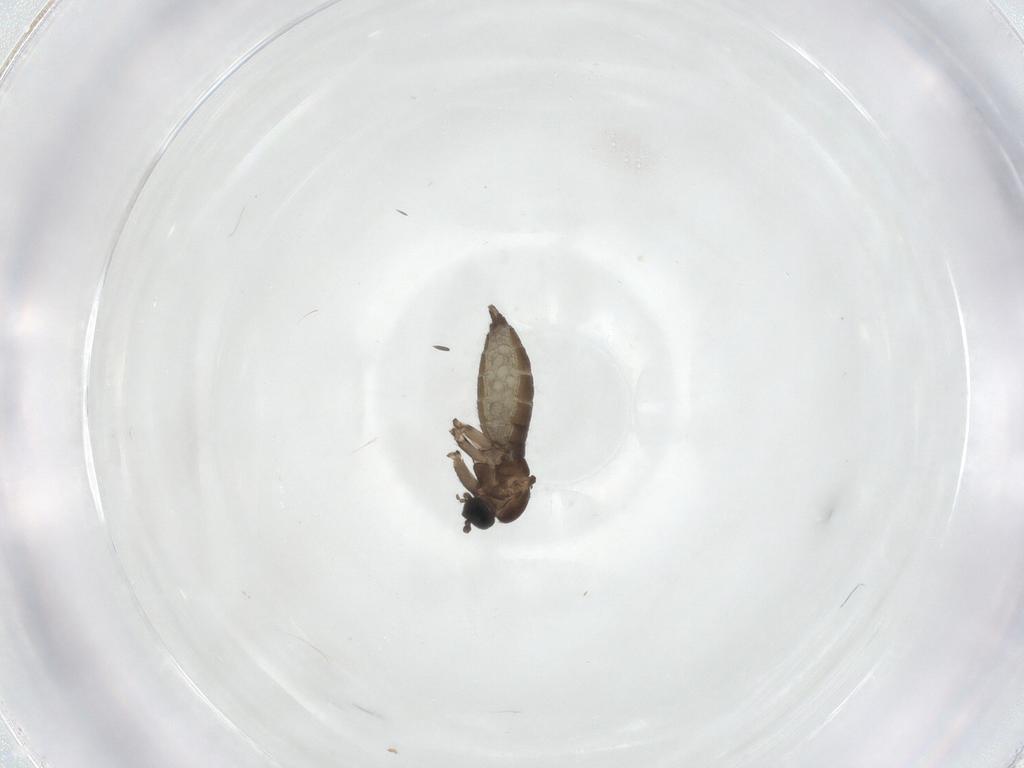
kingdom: Animalia
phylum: Arthropoda
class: Insecta
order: Diptera
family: Sciaridae
